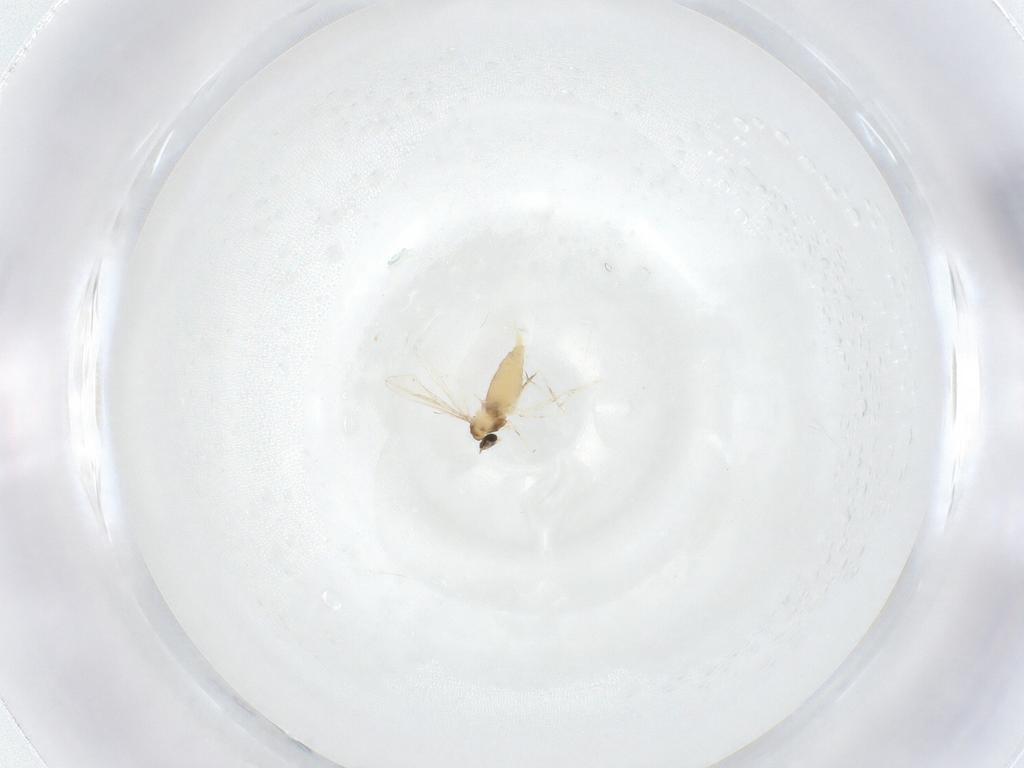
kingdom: Animalia
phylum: Arthropoda
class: Insecta
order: Diptera
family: Cecidomyiidae
